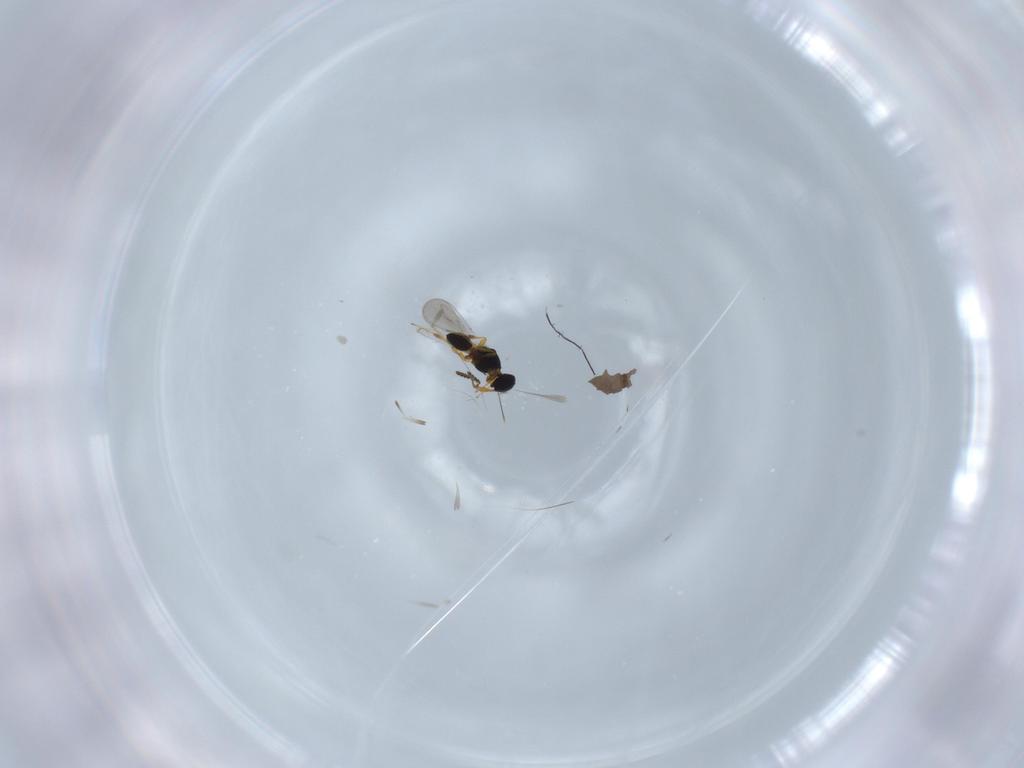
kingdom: Animalia
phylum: Arthropoda
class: Insecta
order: Hymenoptera
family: Platygastridae
